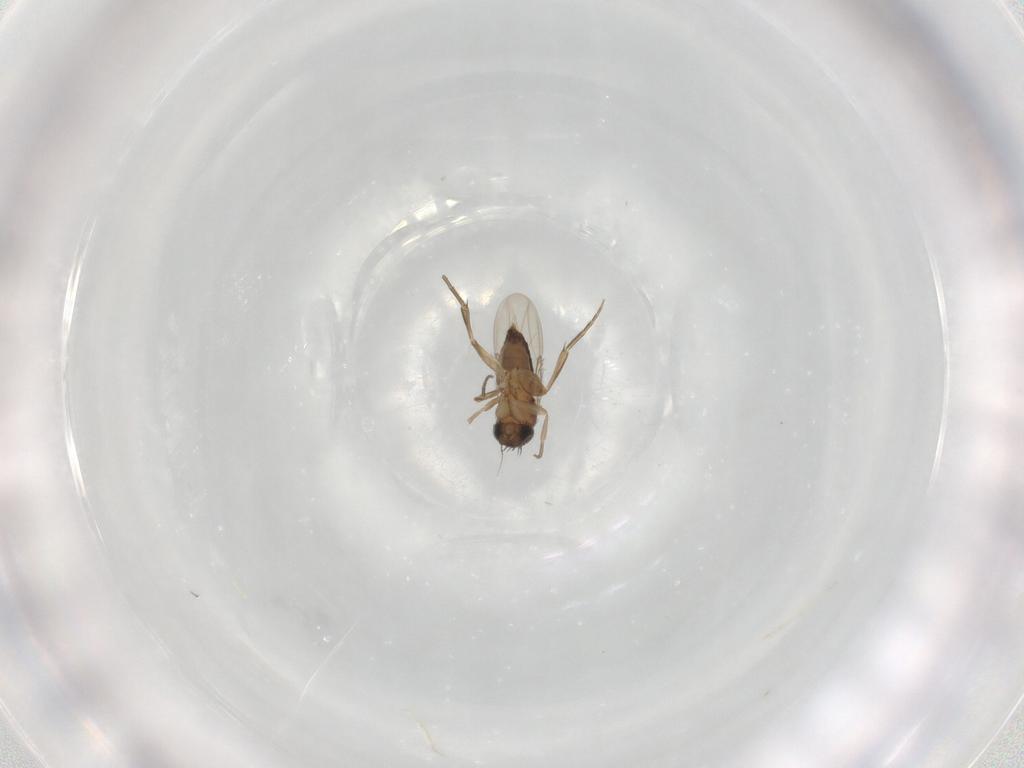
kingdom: Animalia
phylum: Arthropoda
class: Insecta
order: Diptera
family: Phoridae
